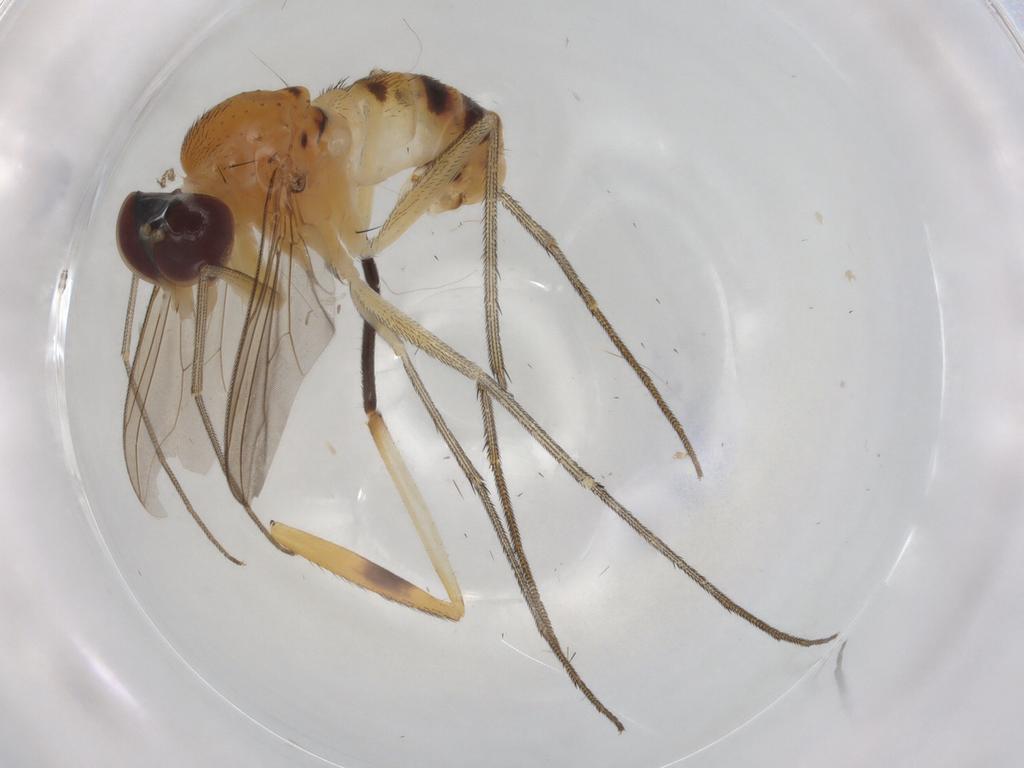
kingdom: Animalia
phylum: Arthropoda
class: Insecta
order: Diptera
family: Dolichopodidae
